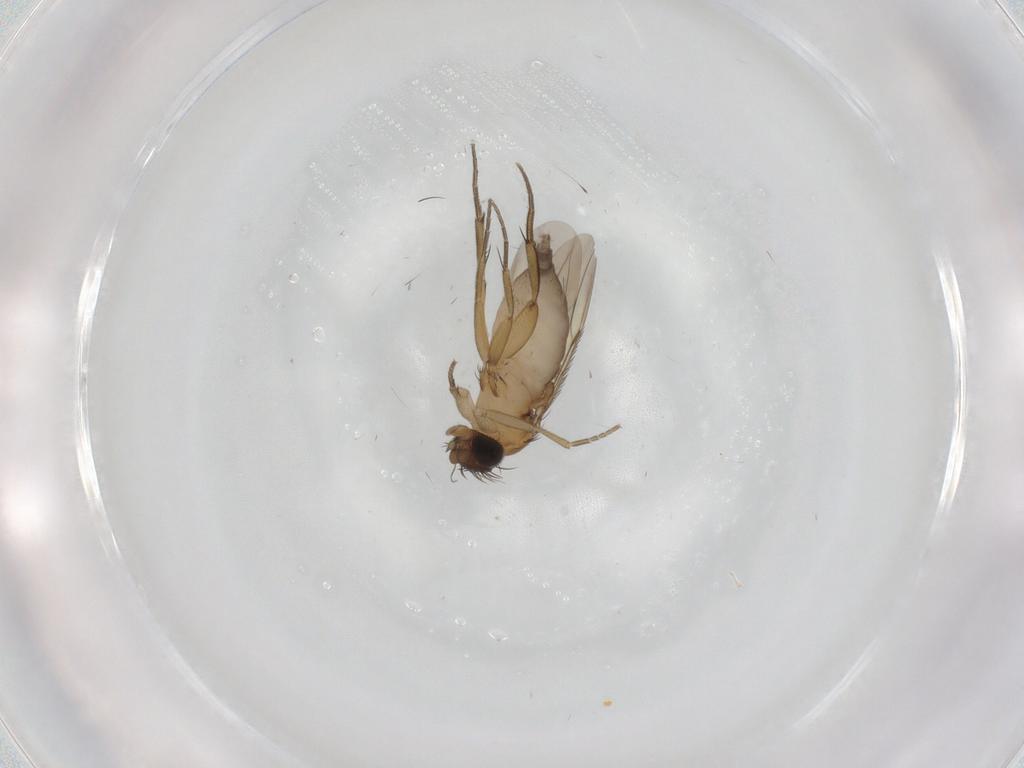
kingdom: Animalia
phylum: Arthropoda
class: Insecta
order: Diptera
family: Phoridae
